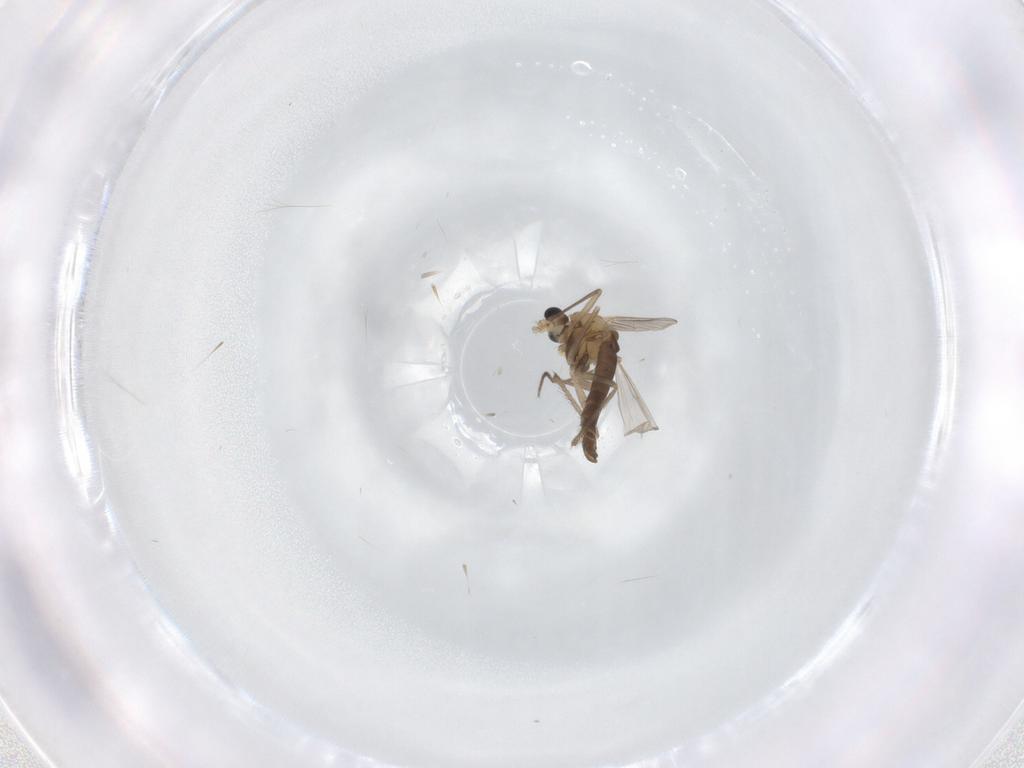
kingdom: Animalia
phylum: Arthropoda
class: Insecta
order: Diptera
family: Chironomidae
